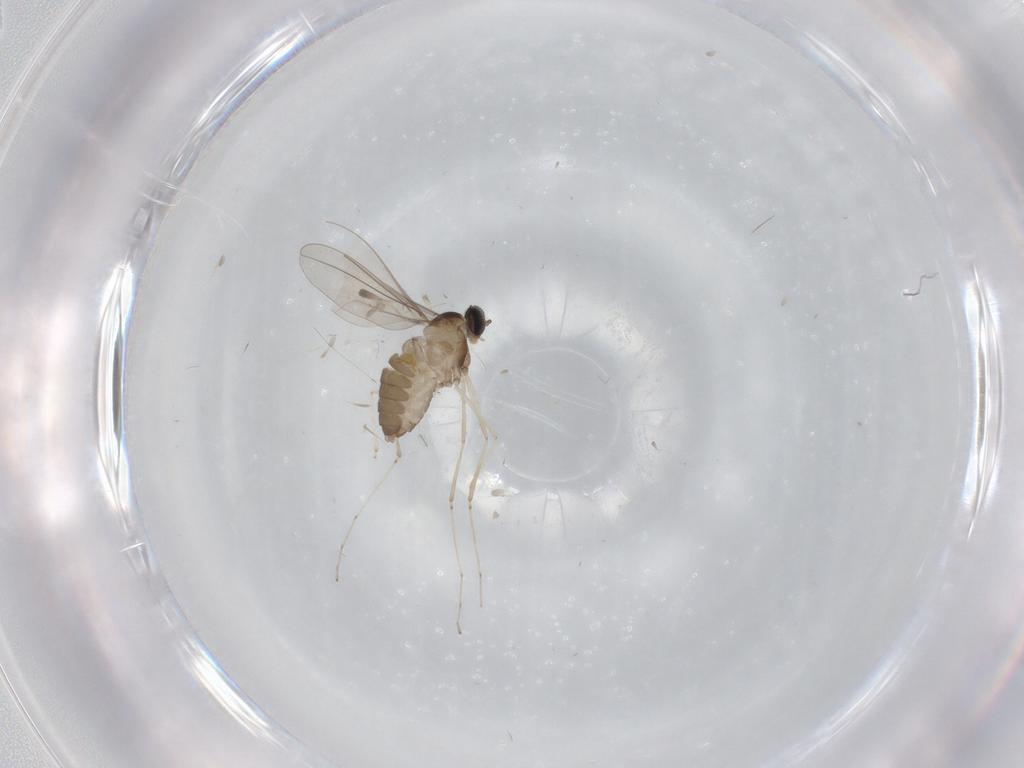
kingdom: Animalia
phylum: Arthropoda
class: Insecta
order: Diptera
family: Cecidomyiidae
